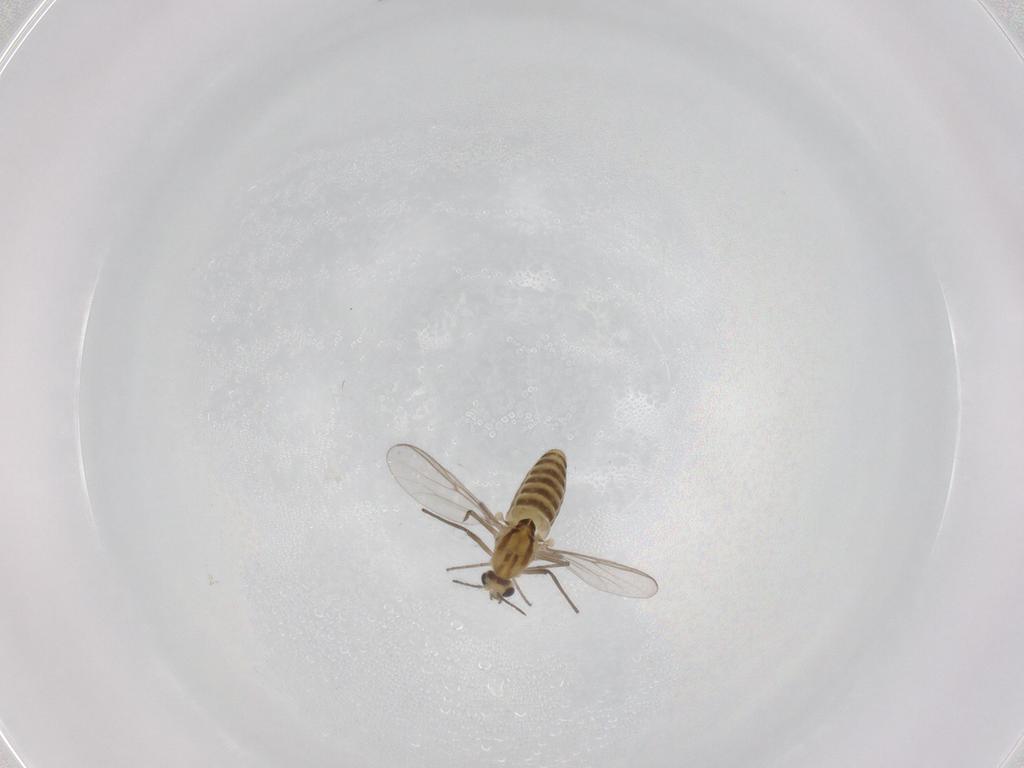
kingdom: Animalia
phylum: Arthropoda
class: Insecta
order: Diptera
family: Chironomidae
